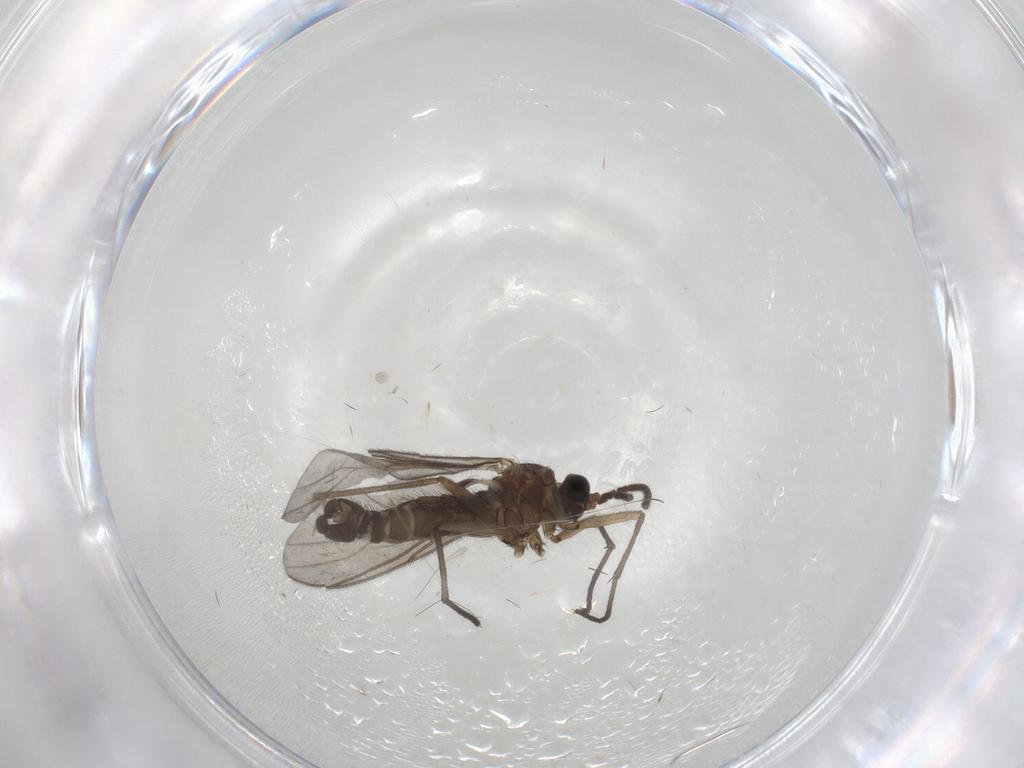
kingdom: Animalia
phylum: Arthropoda
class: Insecta
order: Diptera
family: Sciaridae
